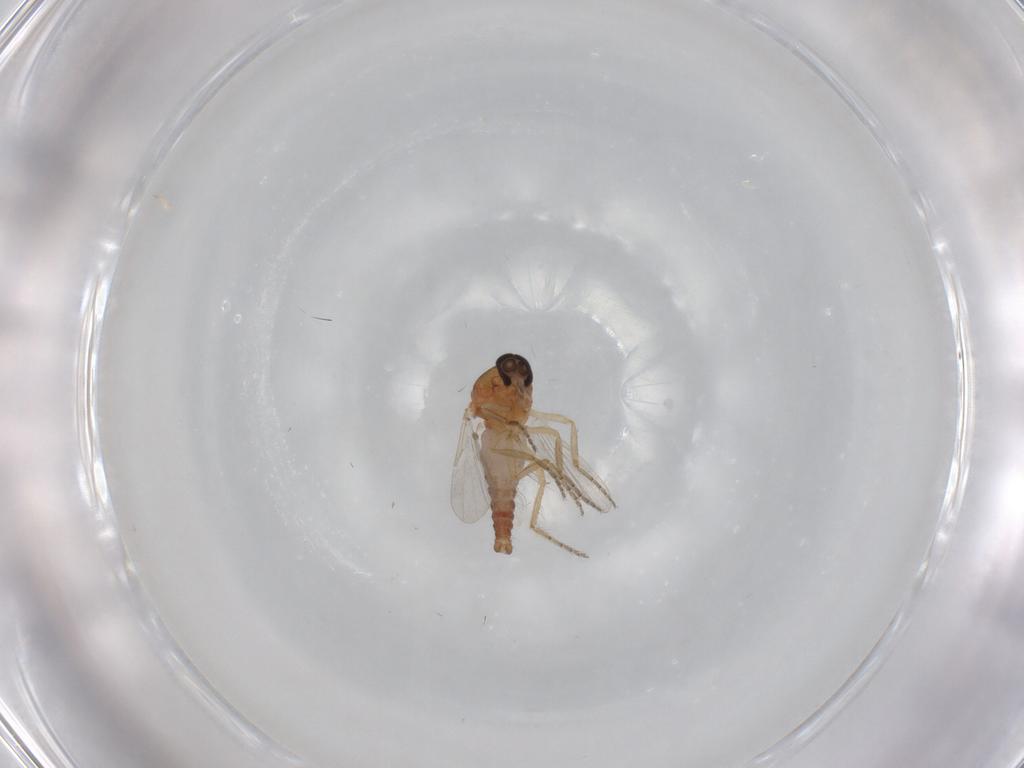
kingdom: Animalia
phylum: Arthropoda
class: Insecta
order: Diptera
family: Ceratopogonidae
